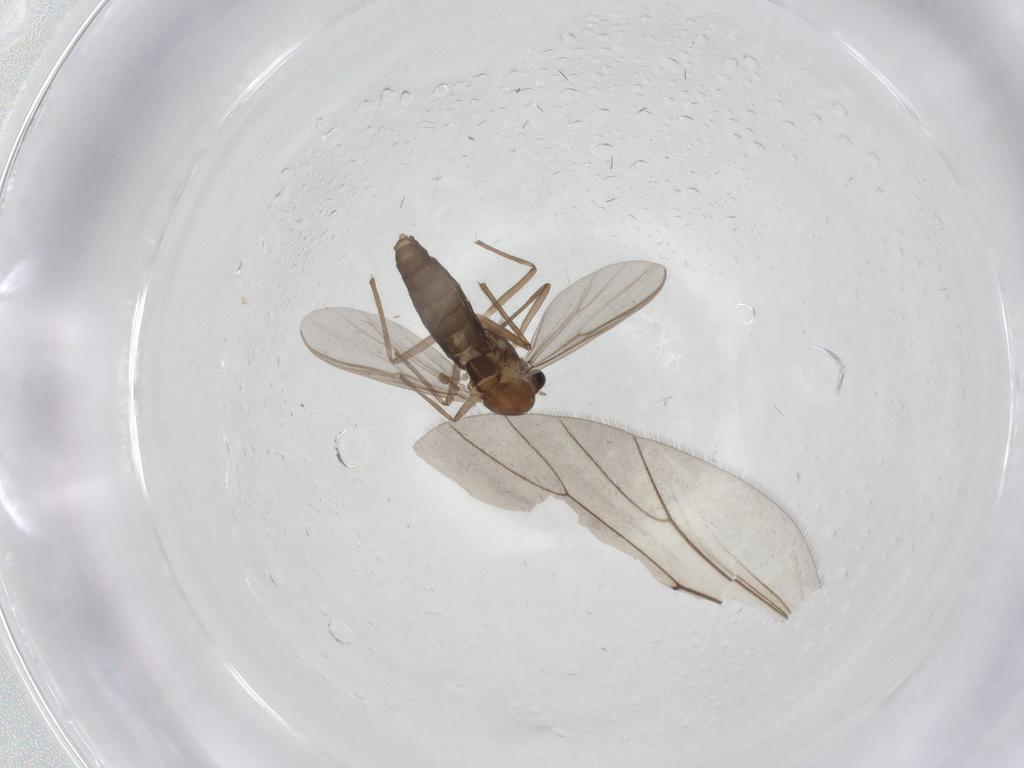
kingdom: Animalia
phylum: Arthropoda
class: Insecta
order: Diptera
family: Chironomidae
